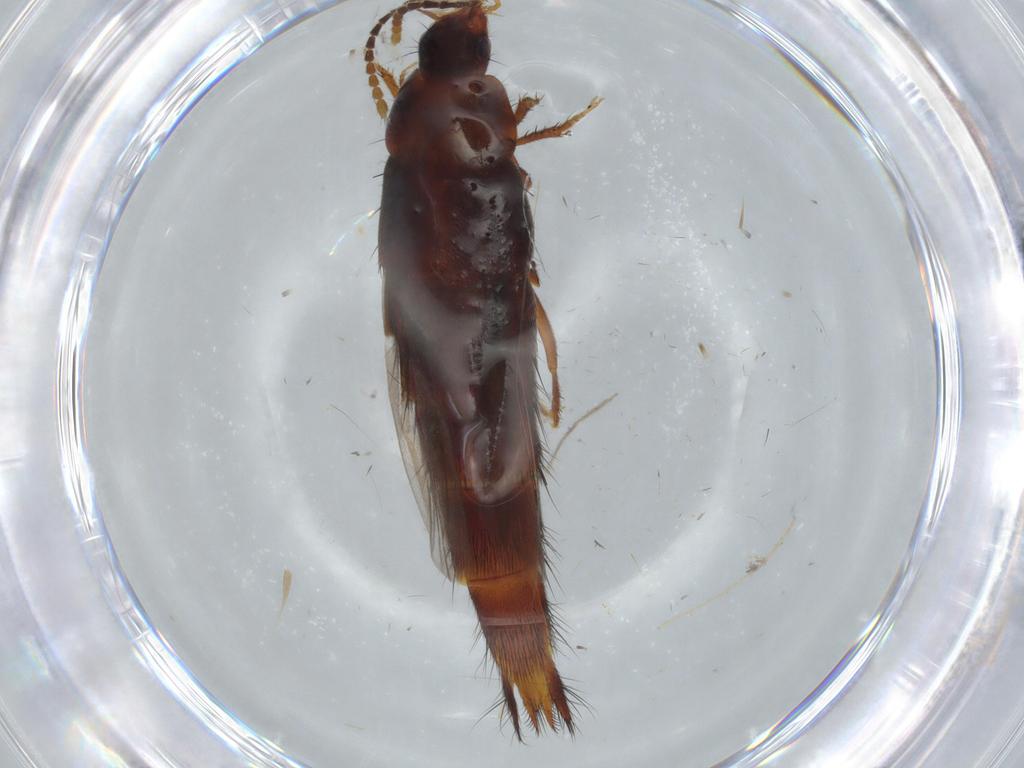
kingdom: Animalia
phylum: Arthropoda
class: Insecta
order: Coleoptera
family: Staphylinidae
